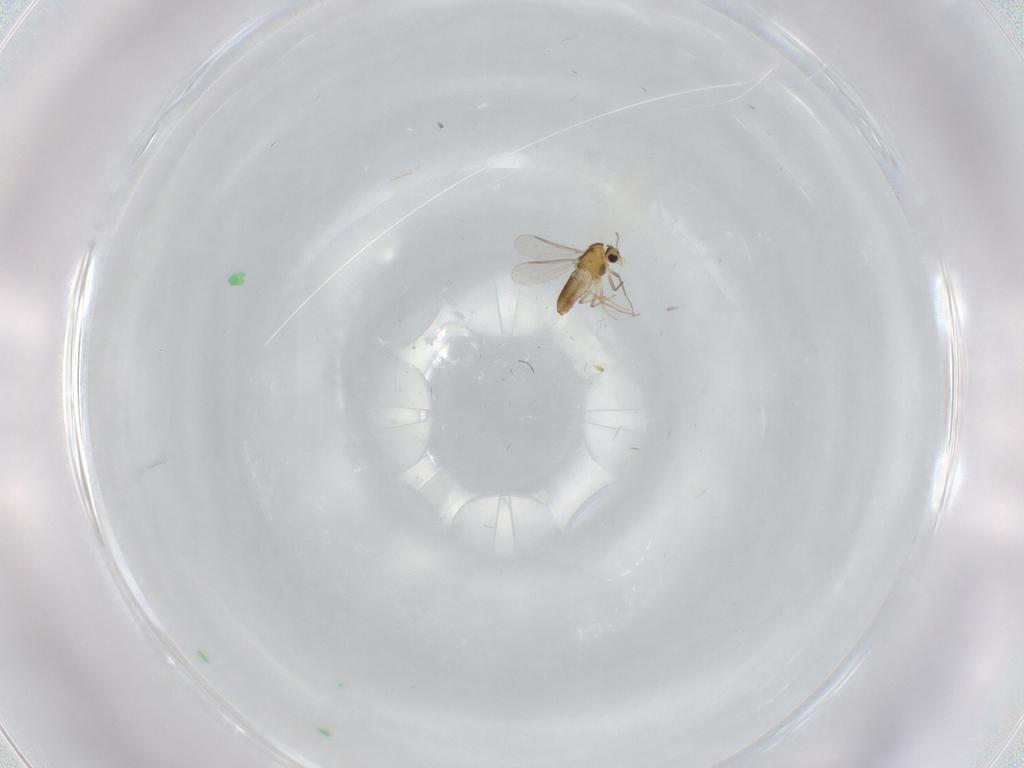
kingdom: Animalia
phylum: Arthropoda
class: Insecta
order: Diptera
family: Chironomidae
